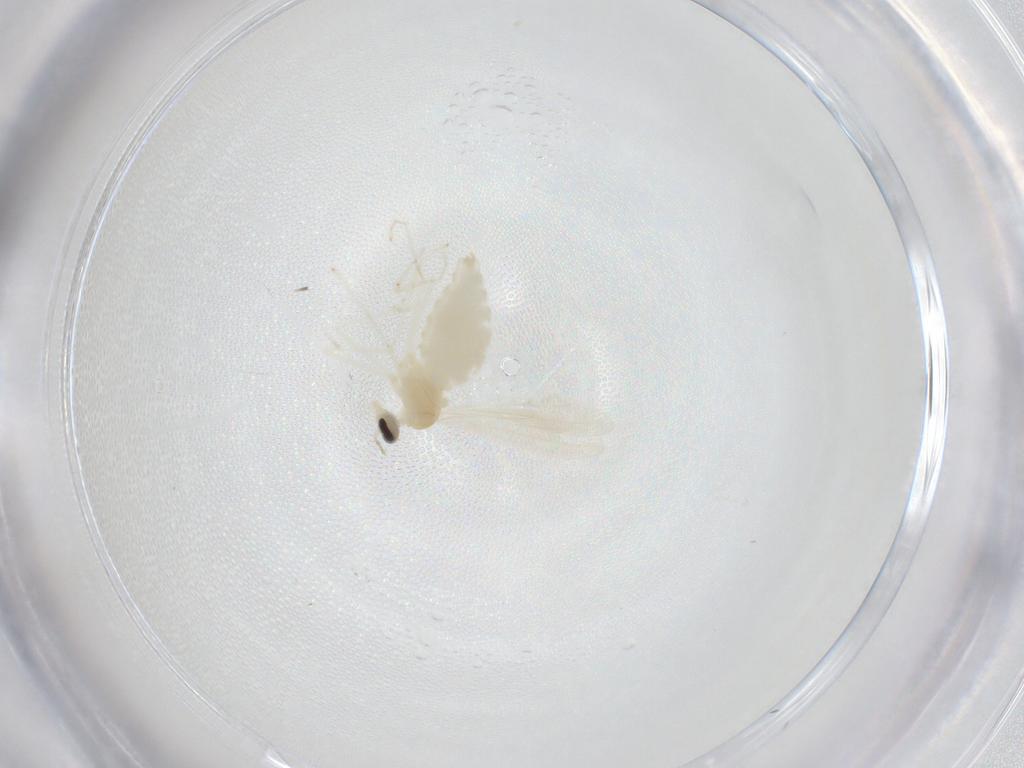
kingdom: Animalia
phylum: Arthropoda
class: Insecta
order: Diptera
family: Cecidomyiidae
